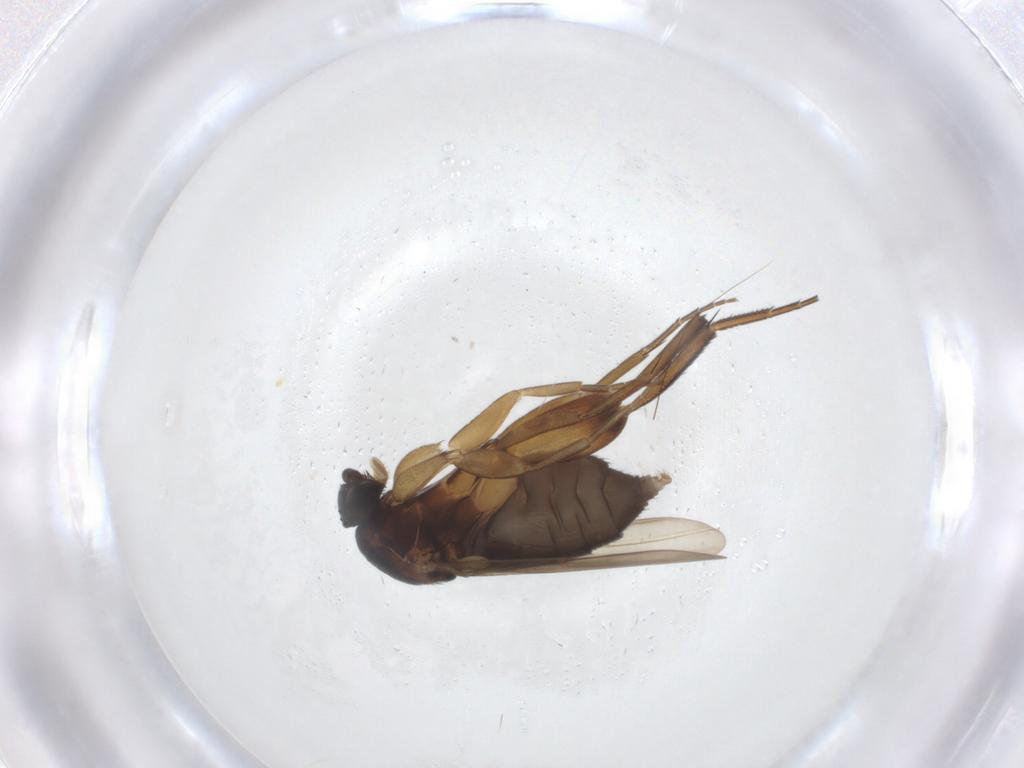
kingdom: Animalia
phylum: Arthropoda
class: Insecta
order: Diptera
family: Phoridae
